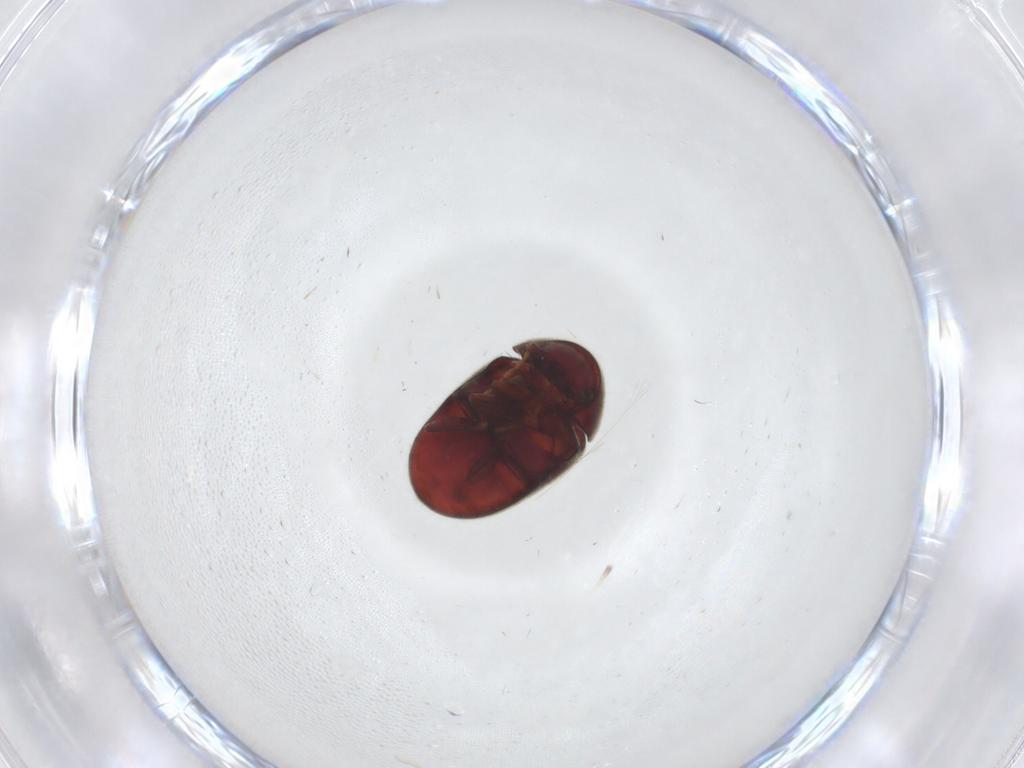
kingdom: Animalia
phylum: Arthropoda
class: Insecta
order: Coleoptera
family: Ptinidae
